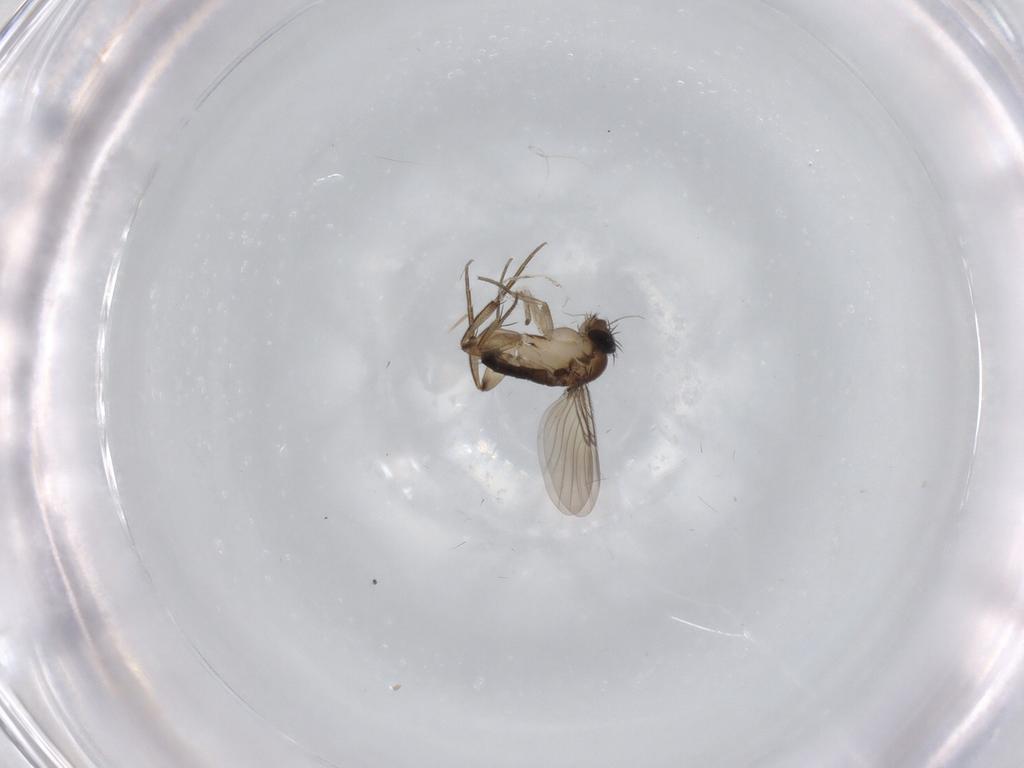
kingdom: Animalia
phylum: Arthropoda
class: Insecta
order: Diptera
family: Phoridae
